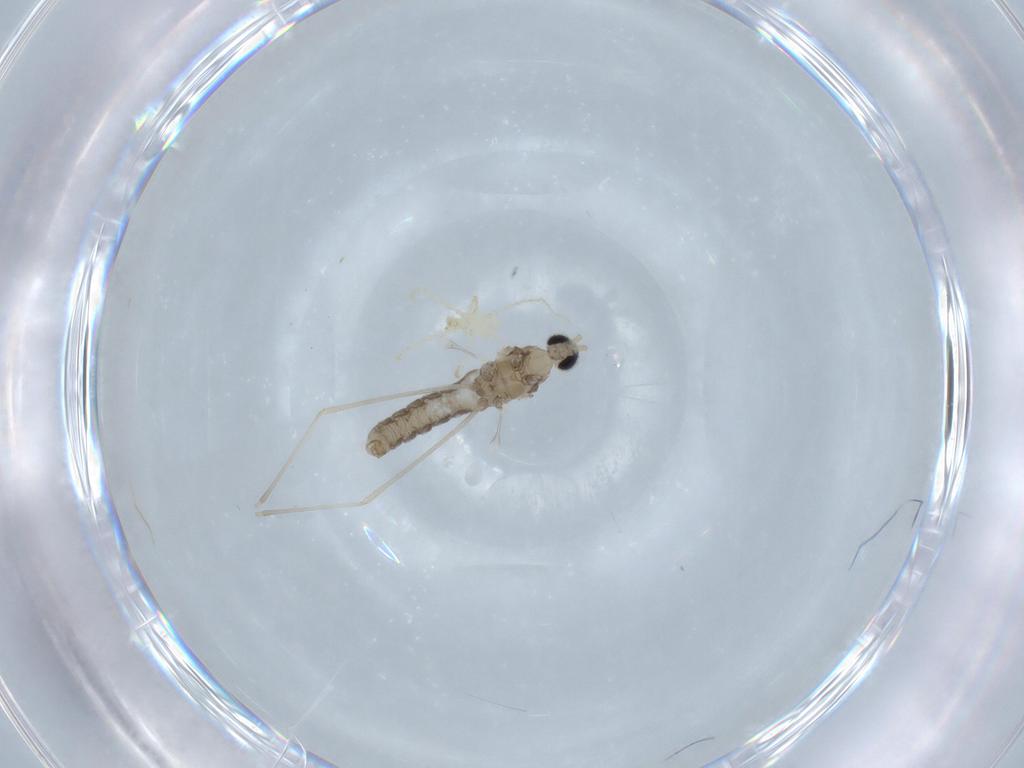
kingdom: Animalia
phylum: Arthropoda
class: Insecta
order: Diptera
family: Cecidomyiidae
